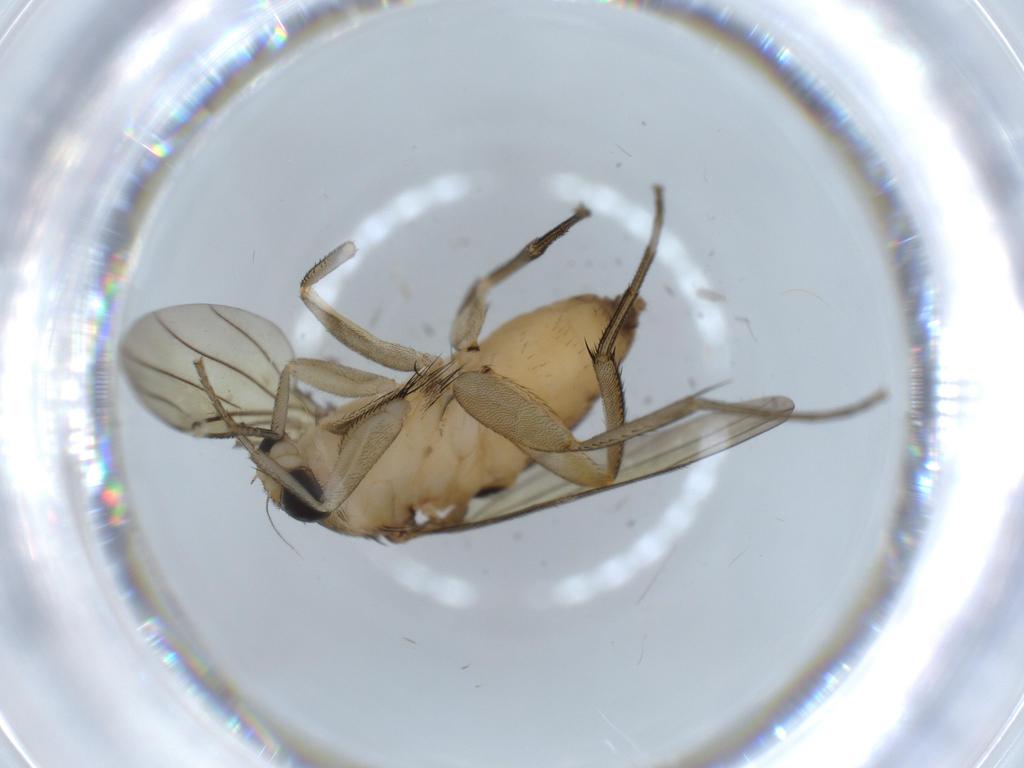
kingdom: Animalia
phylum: Arthropoda
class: Insecta
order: Diptera
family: Phoridae
